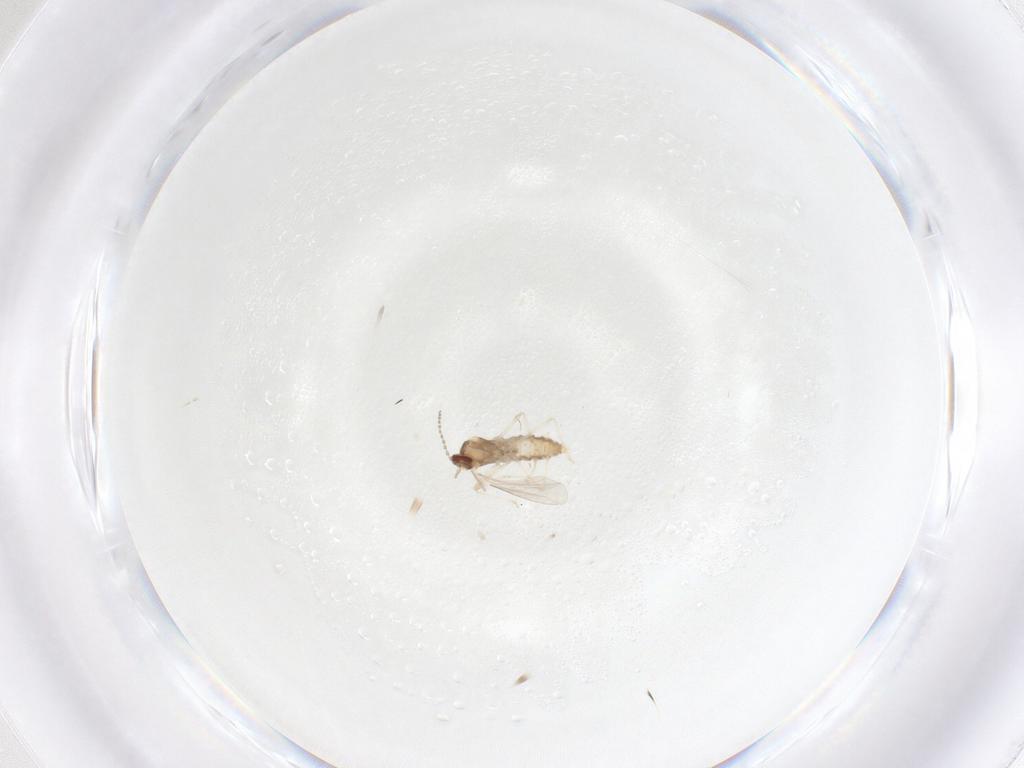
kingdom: Animalia
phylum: Arthropoda
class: Insecta
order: Diptera
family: Cecidomyiidae
